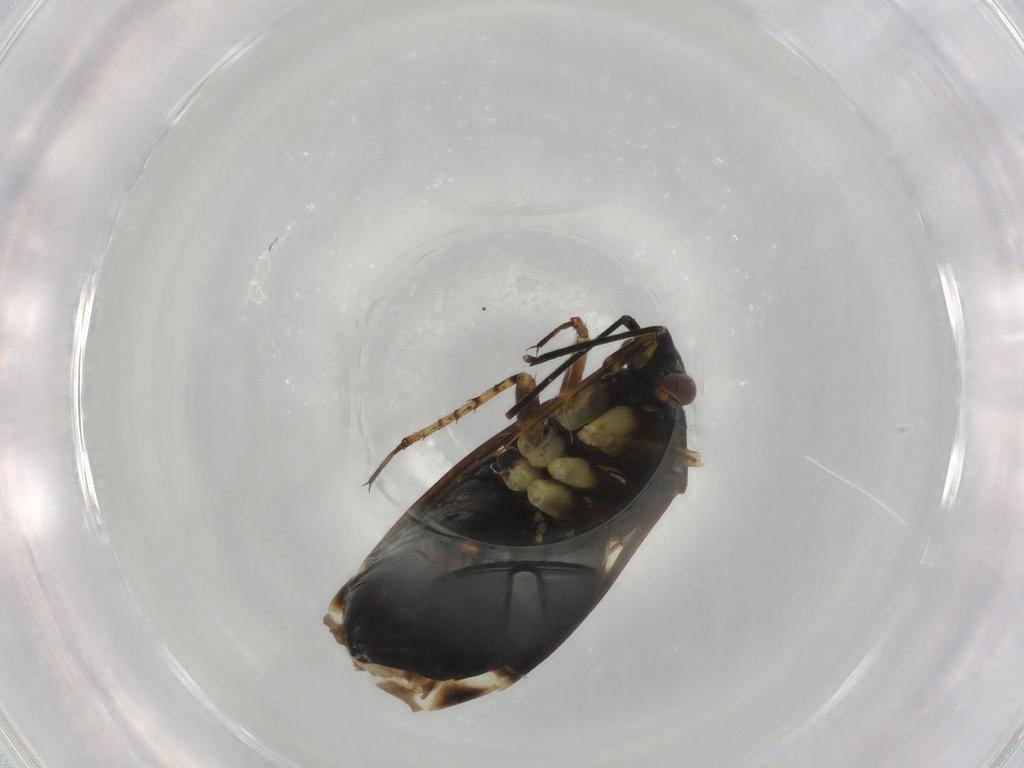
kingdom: Animalia
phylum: Arthropoda
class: Insecta
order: Hemiptera
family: Miridae
